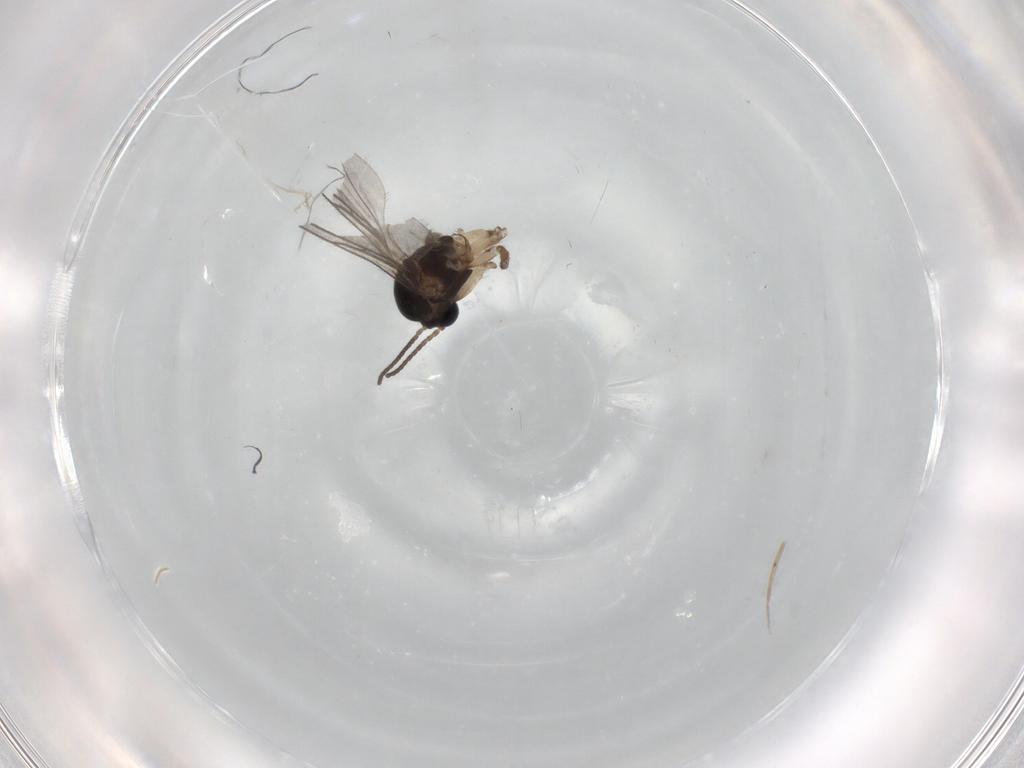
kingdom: Animalia
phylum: Arthropoda
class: Insecta
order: Diptera
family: Sciaridae
